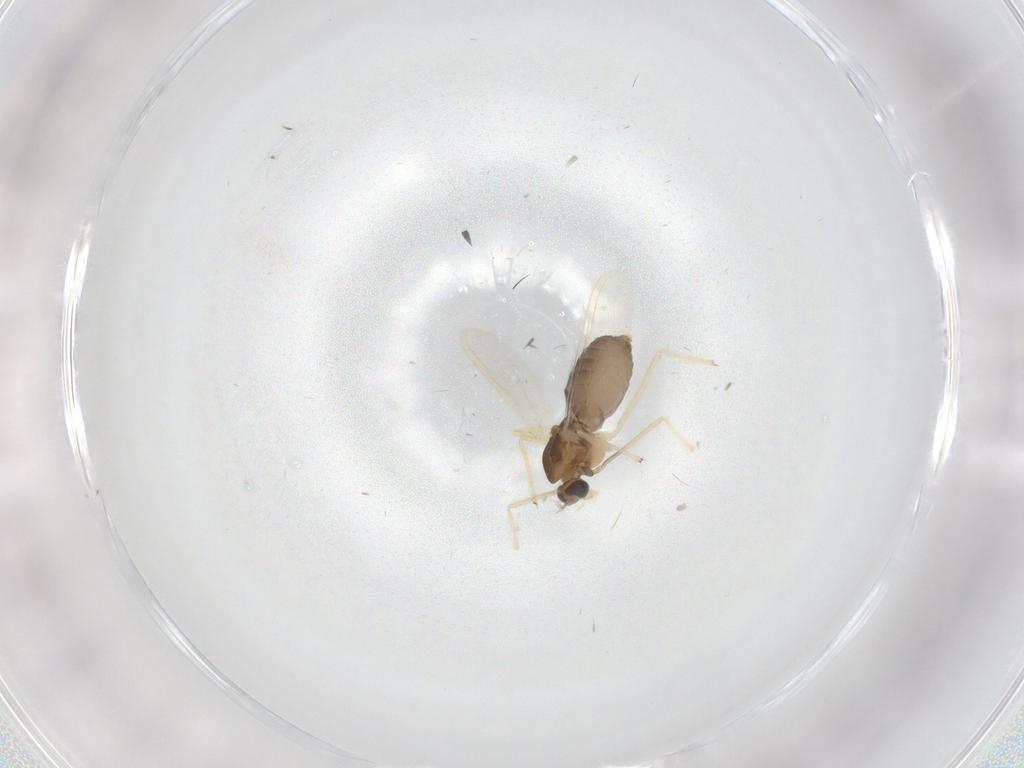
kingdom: Animalia
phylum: Arthropoda
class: Insecta
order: Diptera
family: Chironomidae
